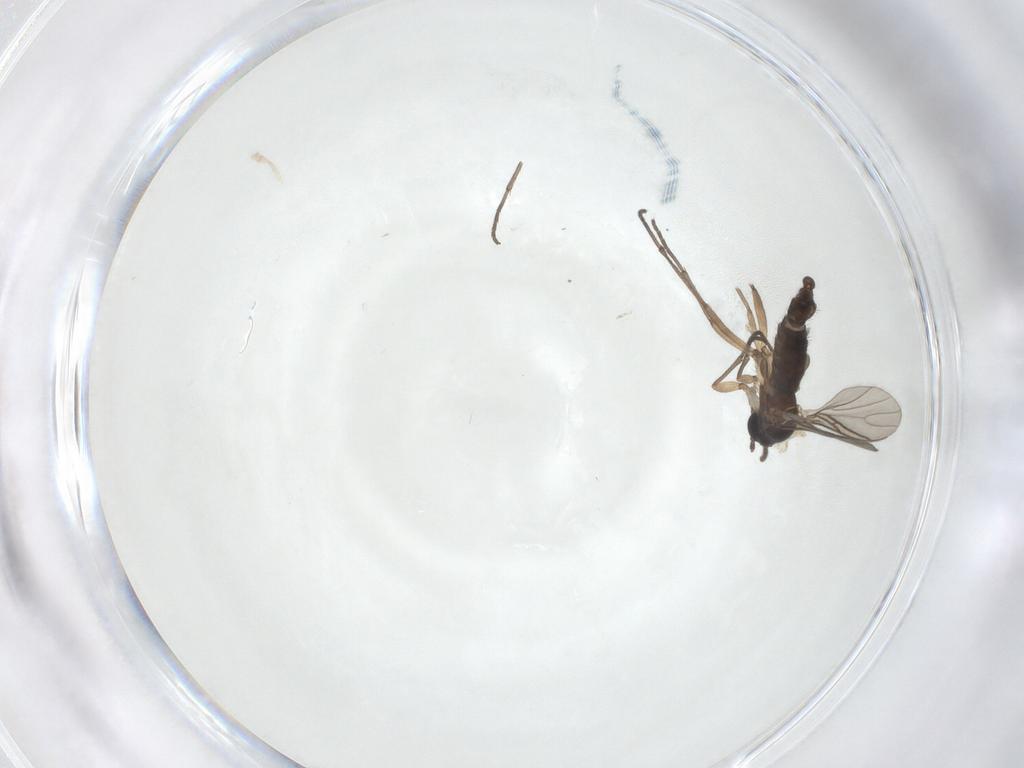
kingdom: Animalia
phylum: Arthropoda
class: Insecta
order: Diptera
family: Sciaridae
